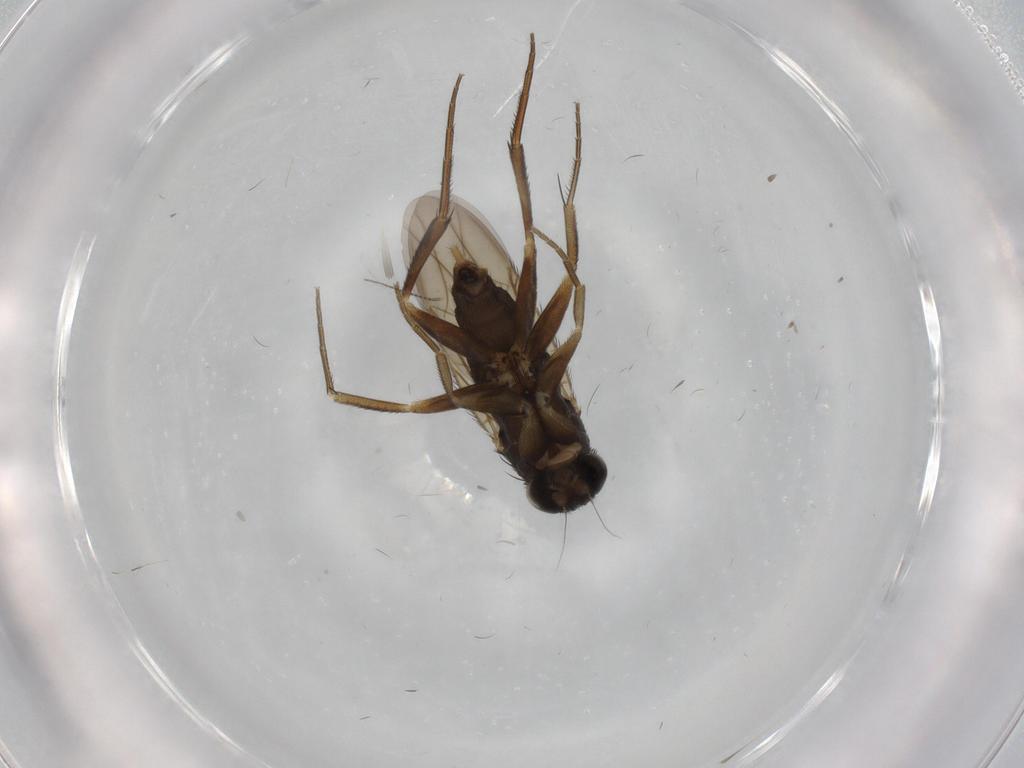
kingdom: Animalia
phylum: Arthropoda
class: Insecta
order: Diptera
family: Phoridae
